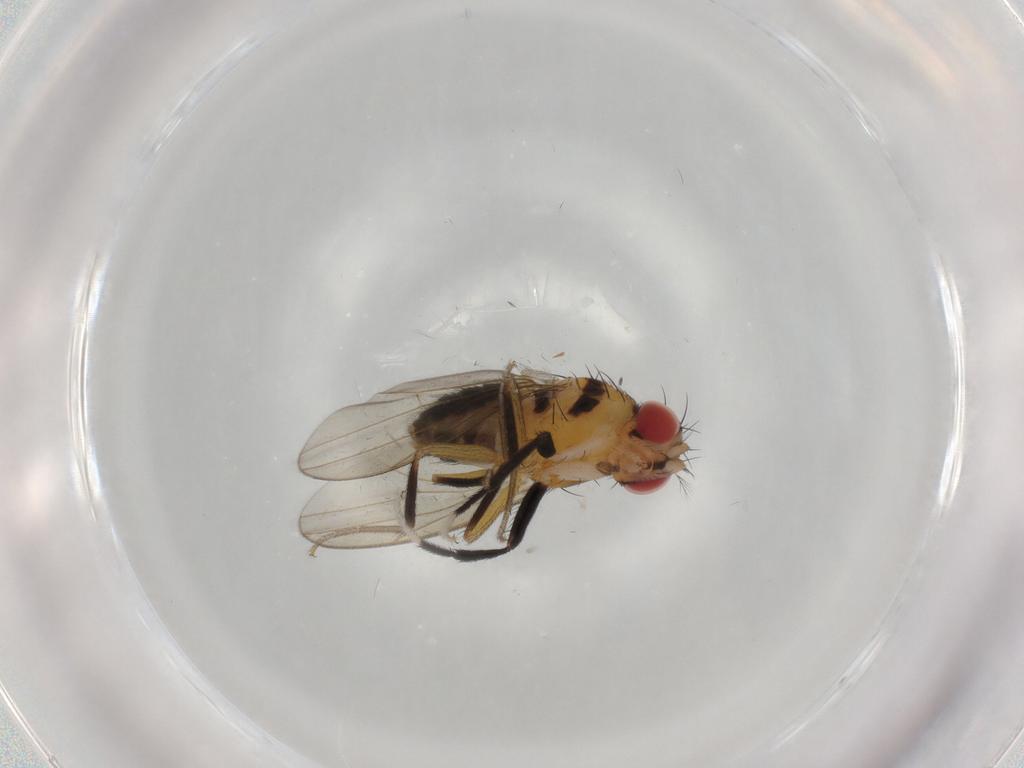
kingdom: Animalia
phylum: Arthropoda
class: Insecta
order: Diptera
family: Drosophilidae
